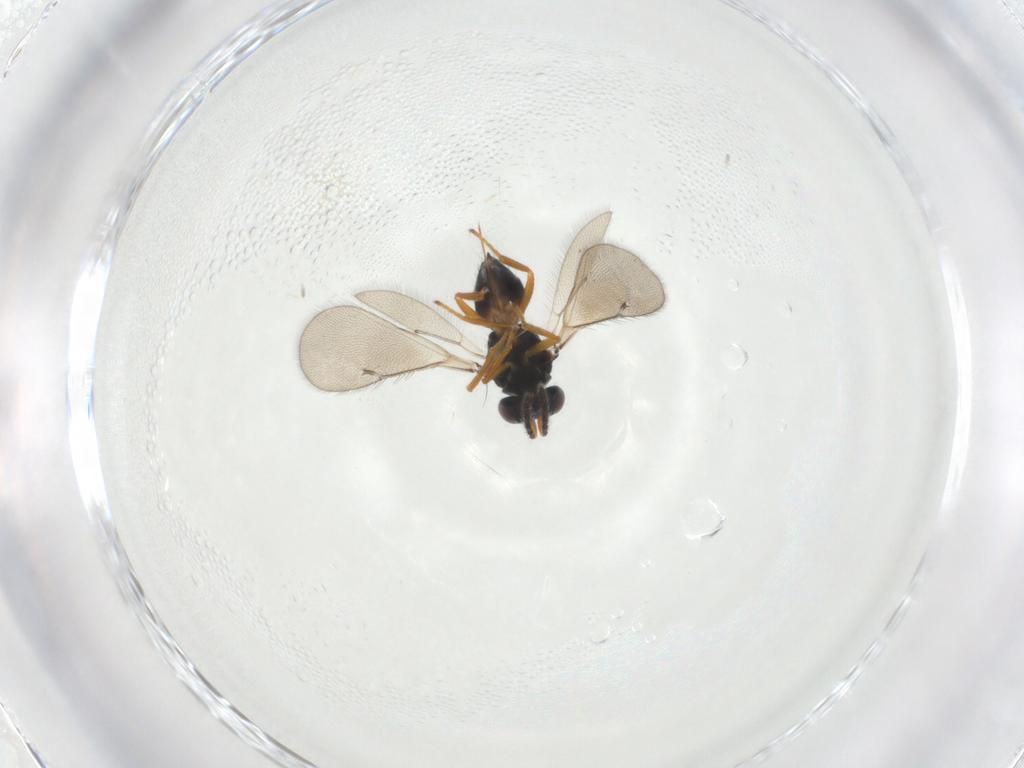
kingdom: Animalia
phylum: Arthropoda
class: Insecta
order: Hymenoptera
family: Eulophidae
